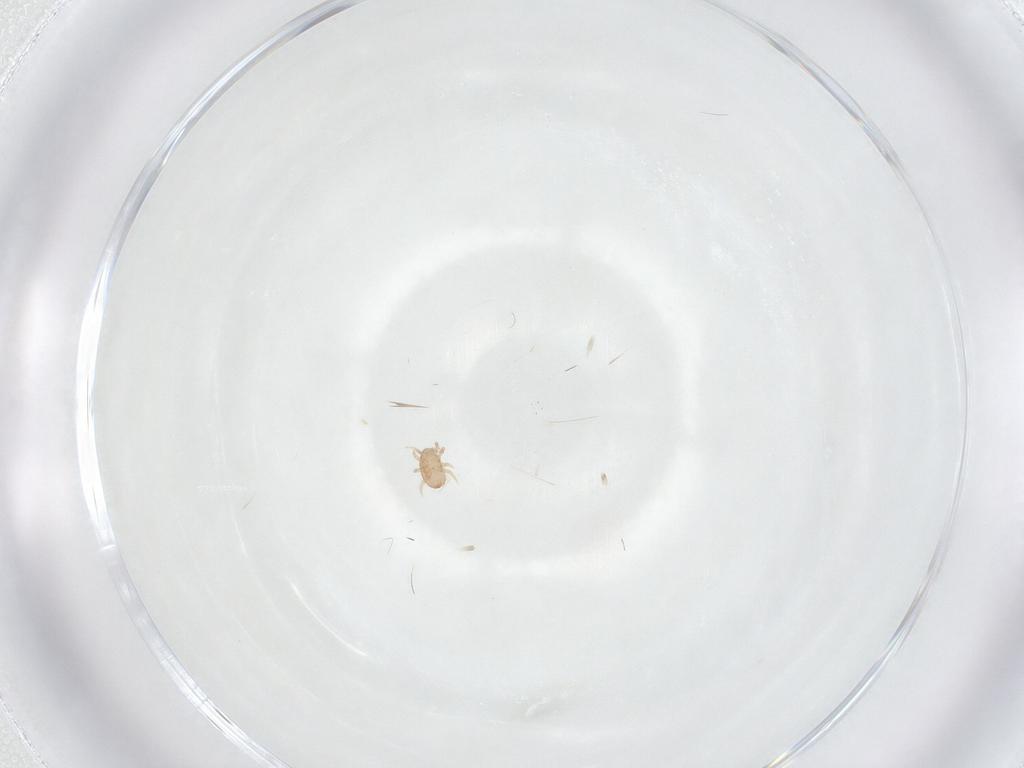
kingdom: Animalia
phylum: Arthropoda
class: Arachnida
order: Mesostigmata
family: Ascidae
